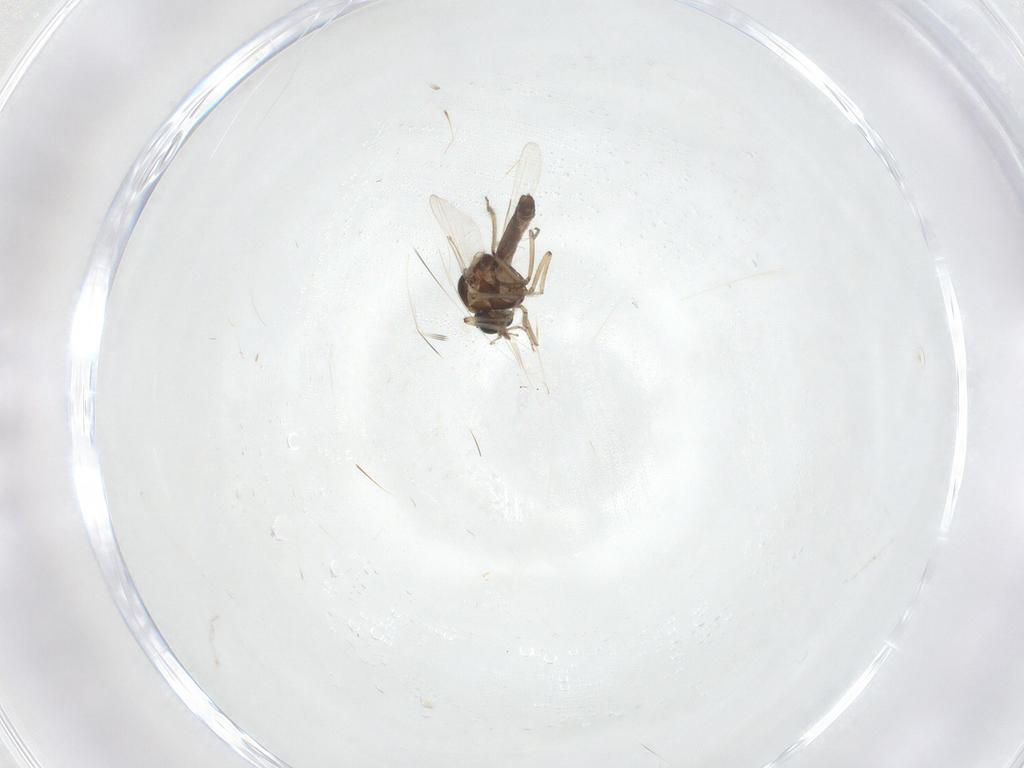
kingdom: Animalia
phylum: Arthropoda
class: Insecta
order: Diptera
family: Ceratopogonidae
